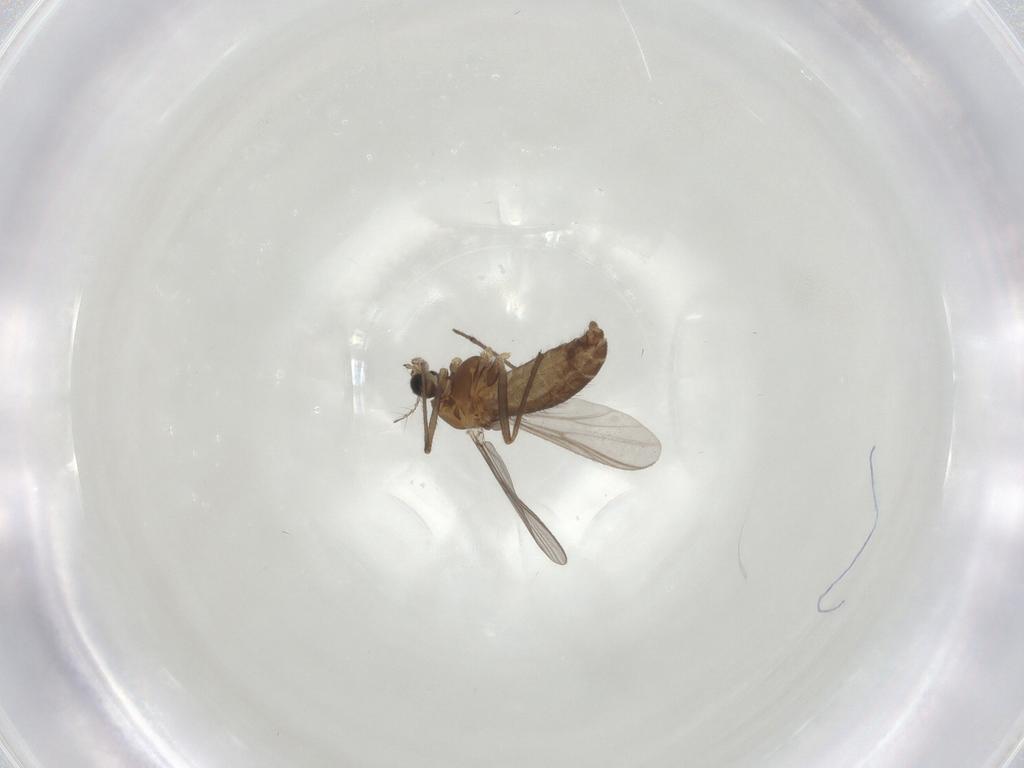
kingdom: Animalia
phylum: Arthropoda
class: Insecta
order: Diptera
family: Chironomidae
